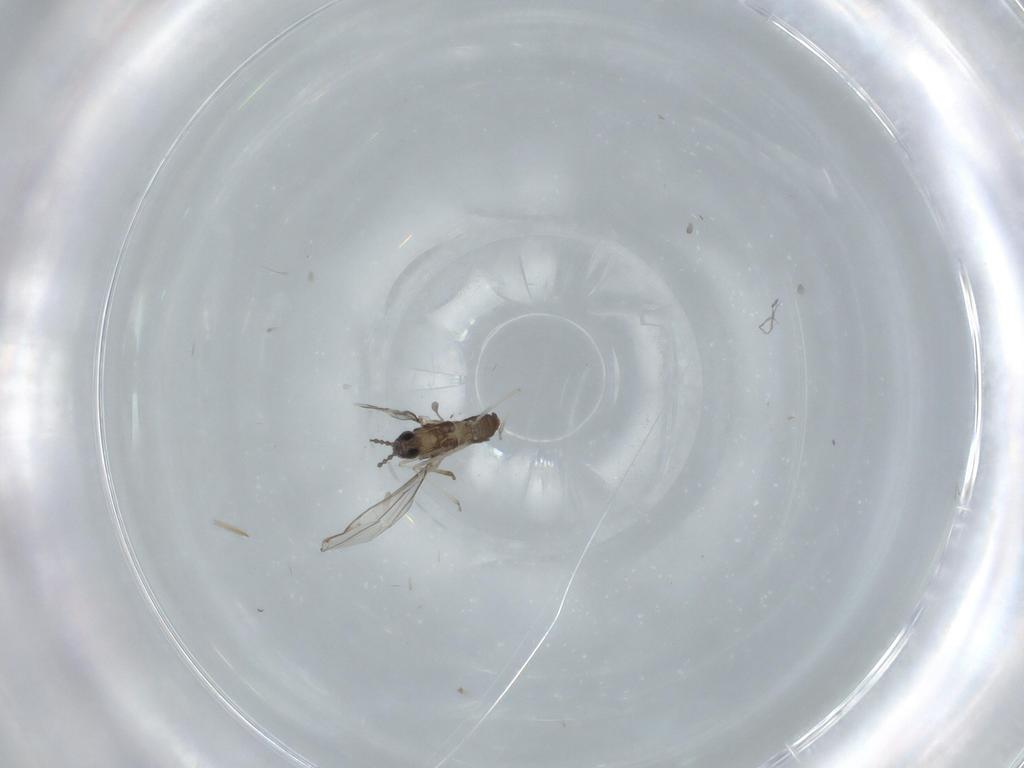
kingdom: Animalia
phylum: Arthropoda
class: Insecta
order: Diptera
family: Cecidomyiidae
